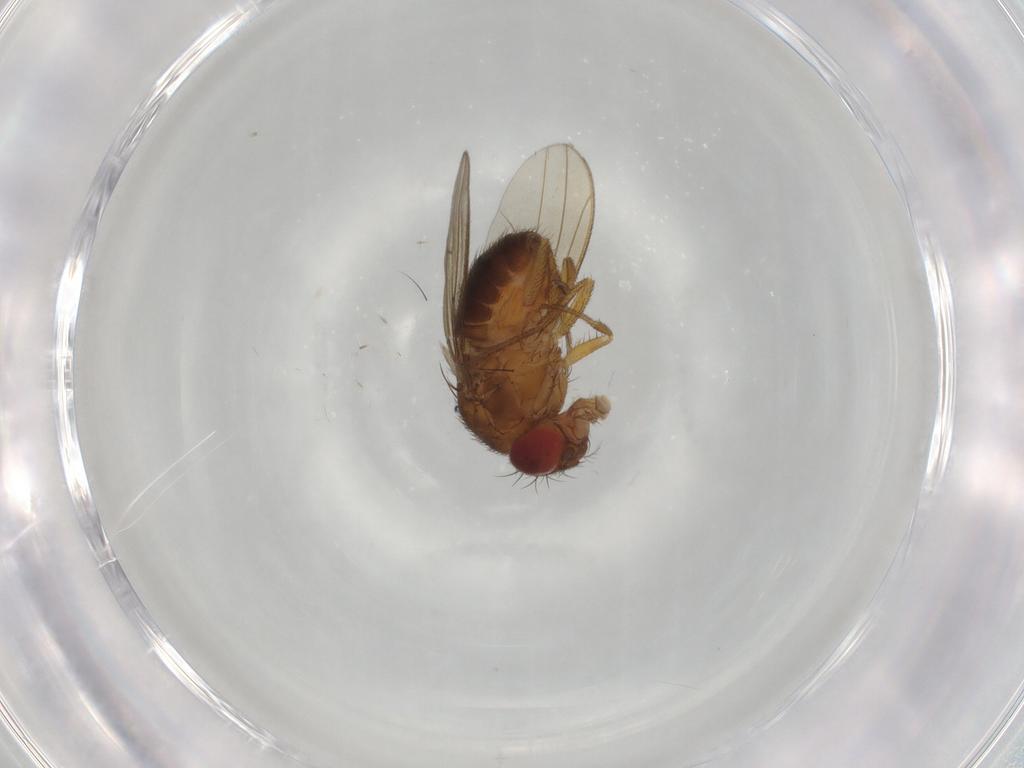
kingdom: Animalia
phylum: Arthropoda
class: Insecta
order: Diptera
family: Drosophilidae
